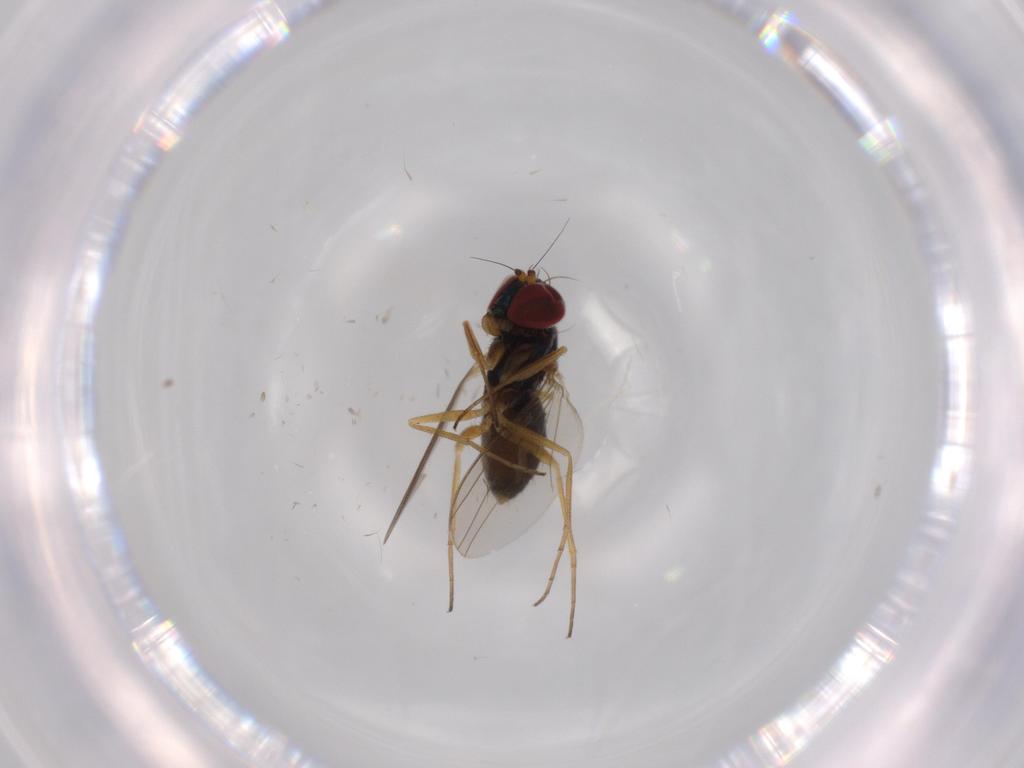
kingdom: Animalia
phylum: Arthropoda
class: Insecta
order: Diptera
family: Dolichopodidae
